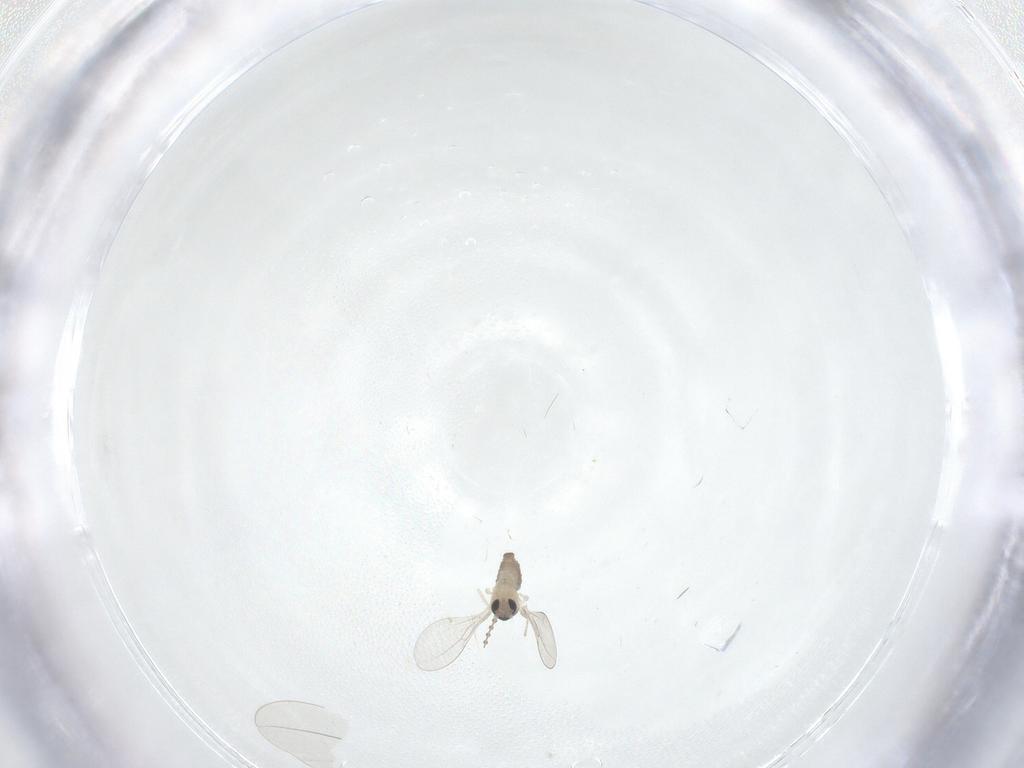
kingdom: Animalia
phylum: Arthropoda
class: Insecta
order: Diptera
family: Cecidomyiidae
